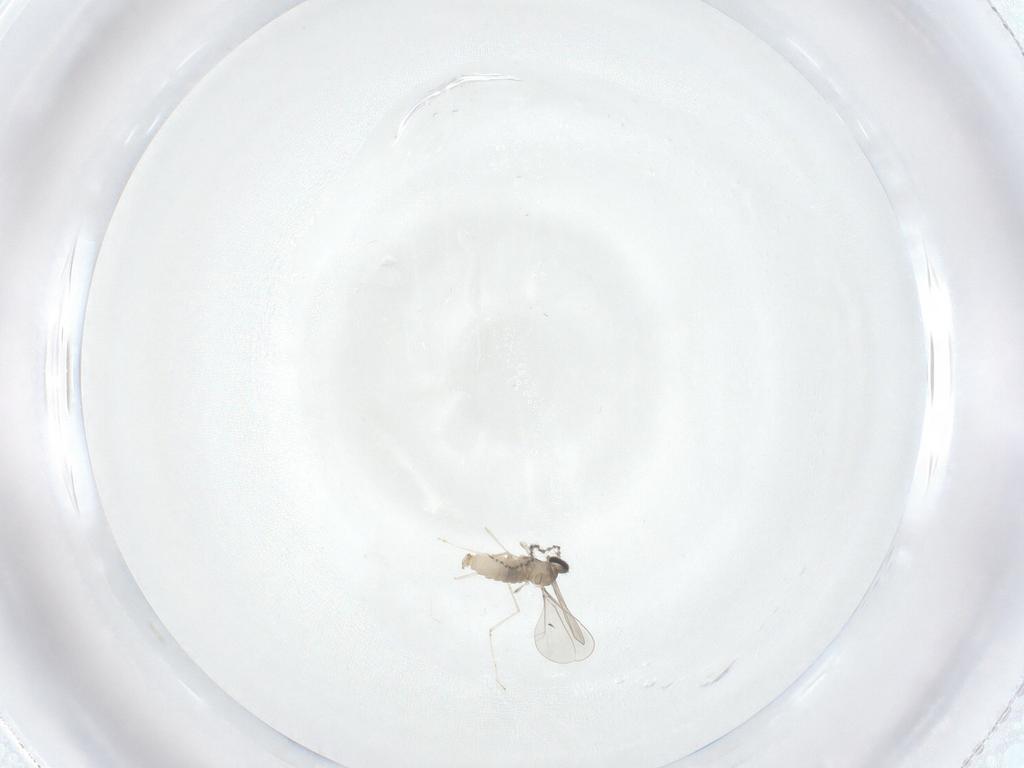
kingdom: Animalia
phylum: Arthropoda
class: Insecta
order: Diptera
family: Cecidomyiidae
